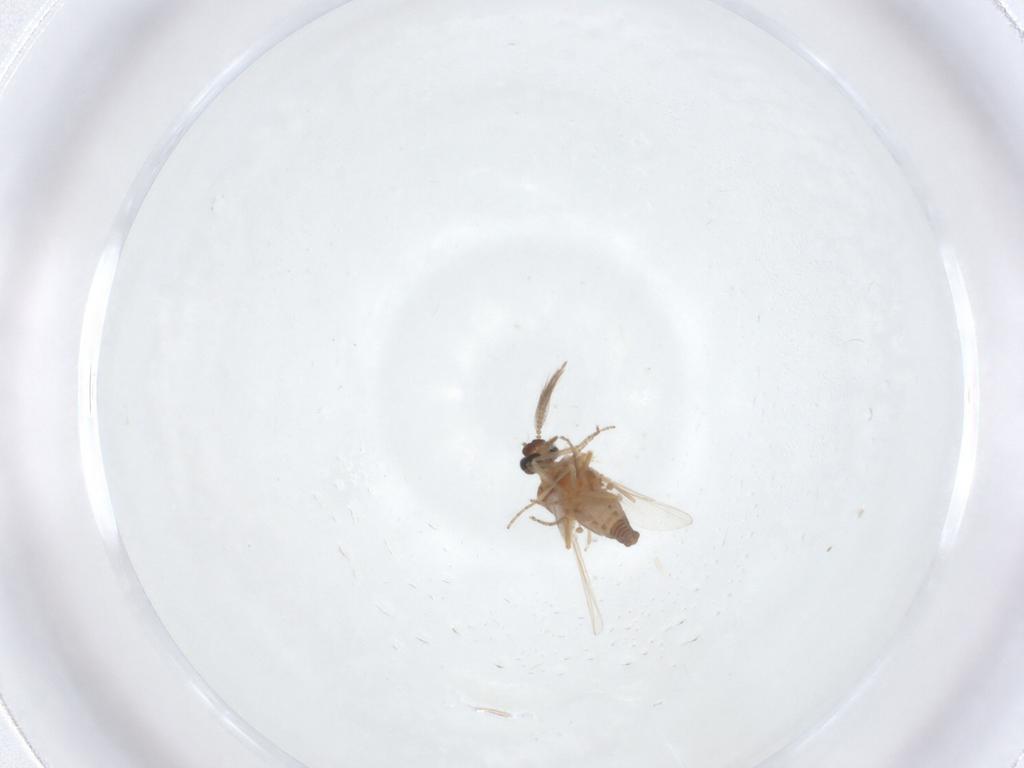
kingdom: Animalia
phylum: Arthropoda
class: Insecta
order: Diptera
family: Ceratopogonidae
